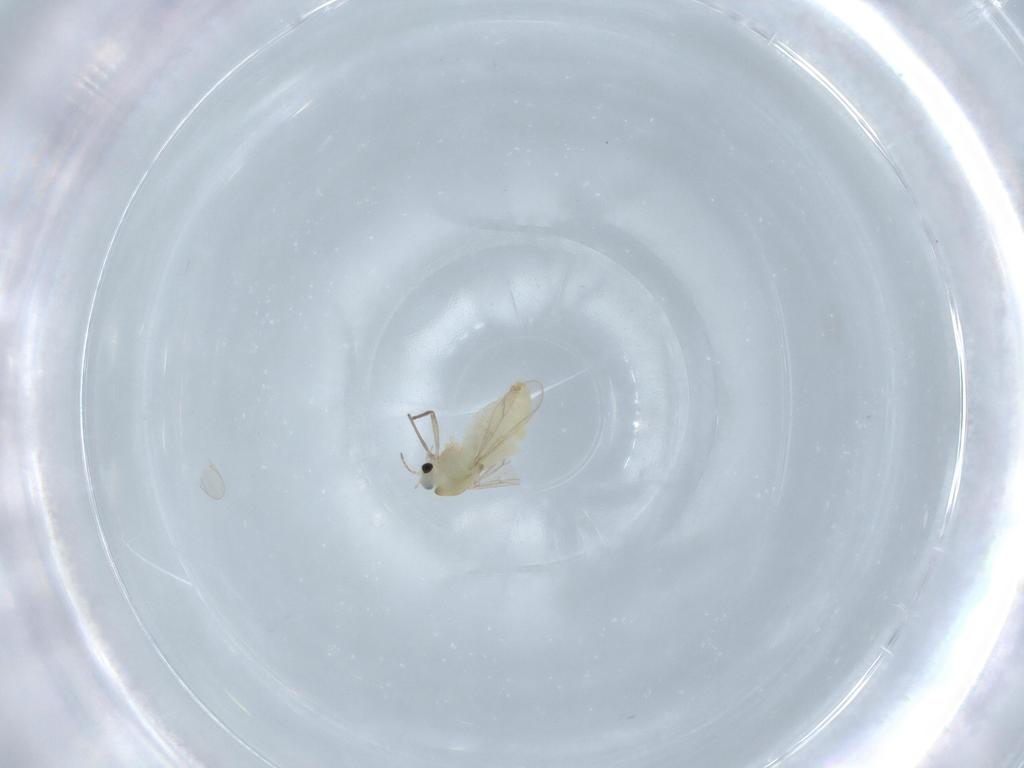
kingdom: Animalia
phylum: Arthropoda
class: Insecta
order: Diptera
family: Chironomidae
